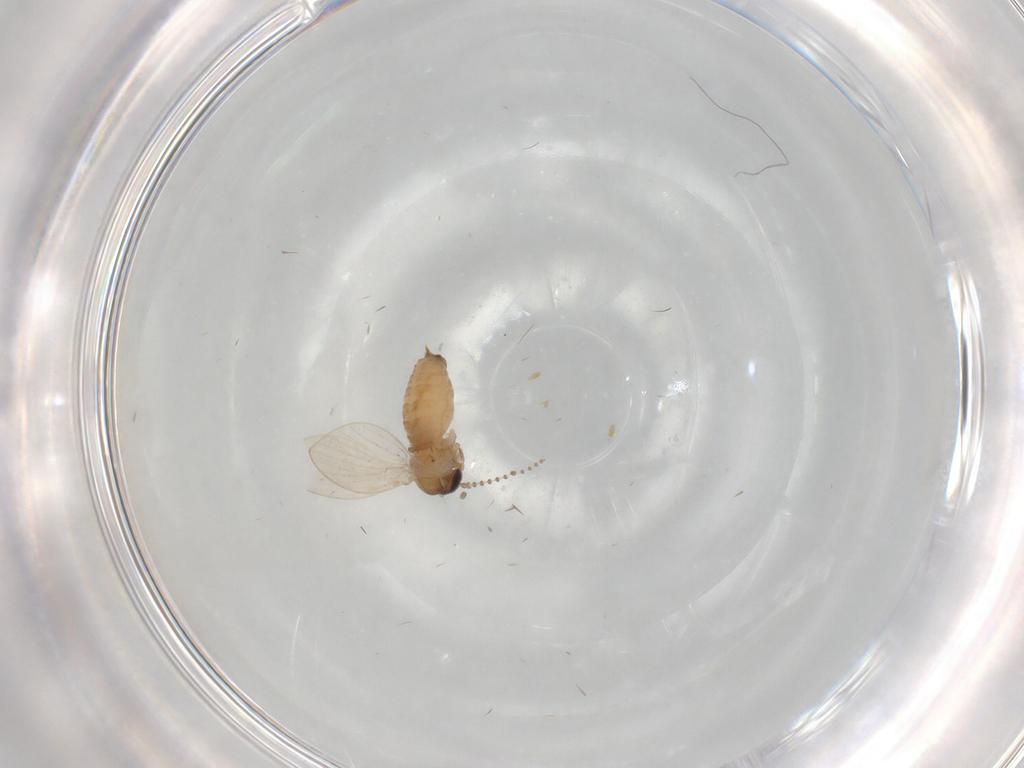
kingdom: Animalia
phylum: Arthropoda
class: Insecta
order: Diptera
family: Psychodidae
